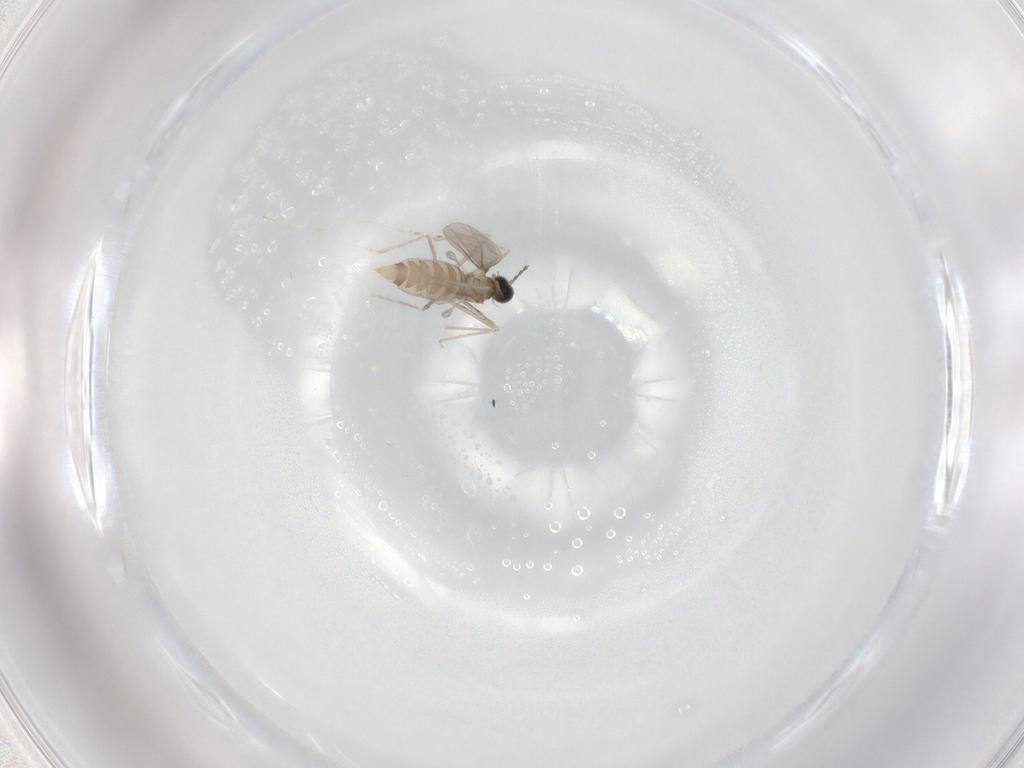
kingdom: Animalia
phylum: Arthropoda
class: Insecta
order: Diptera
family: Cecidomyiidae
